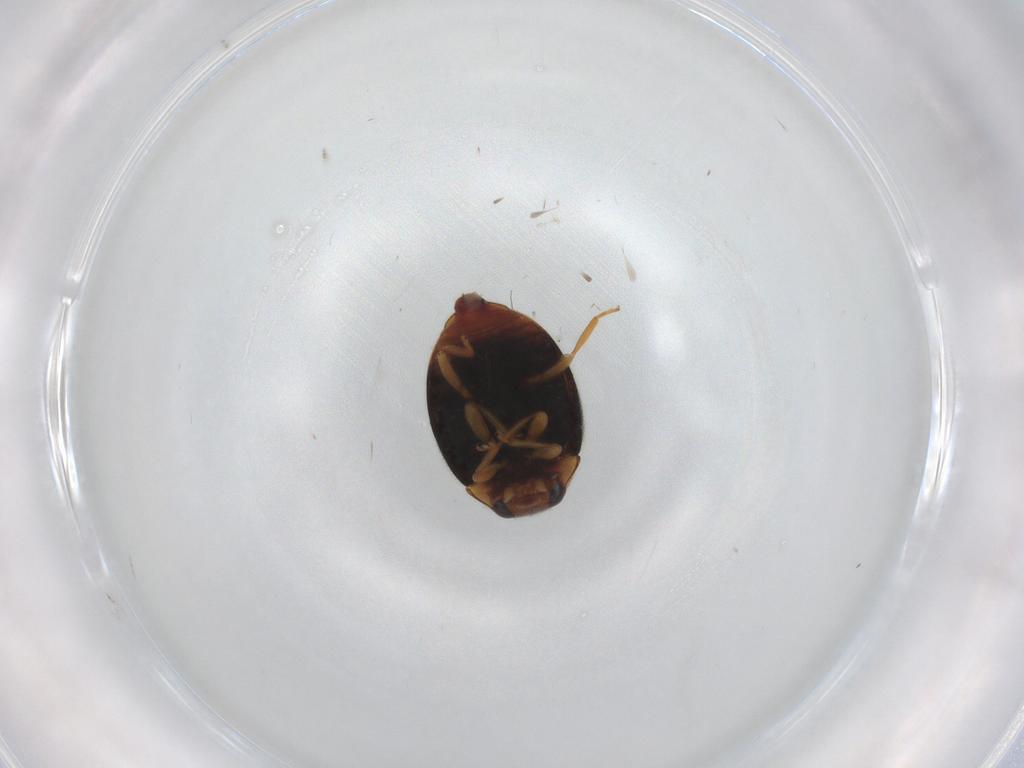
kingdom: Animalia
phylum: Arthropoda
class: Insecta
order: Coleoptera
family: Coccinellidae
